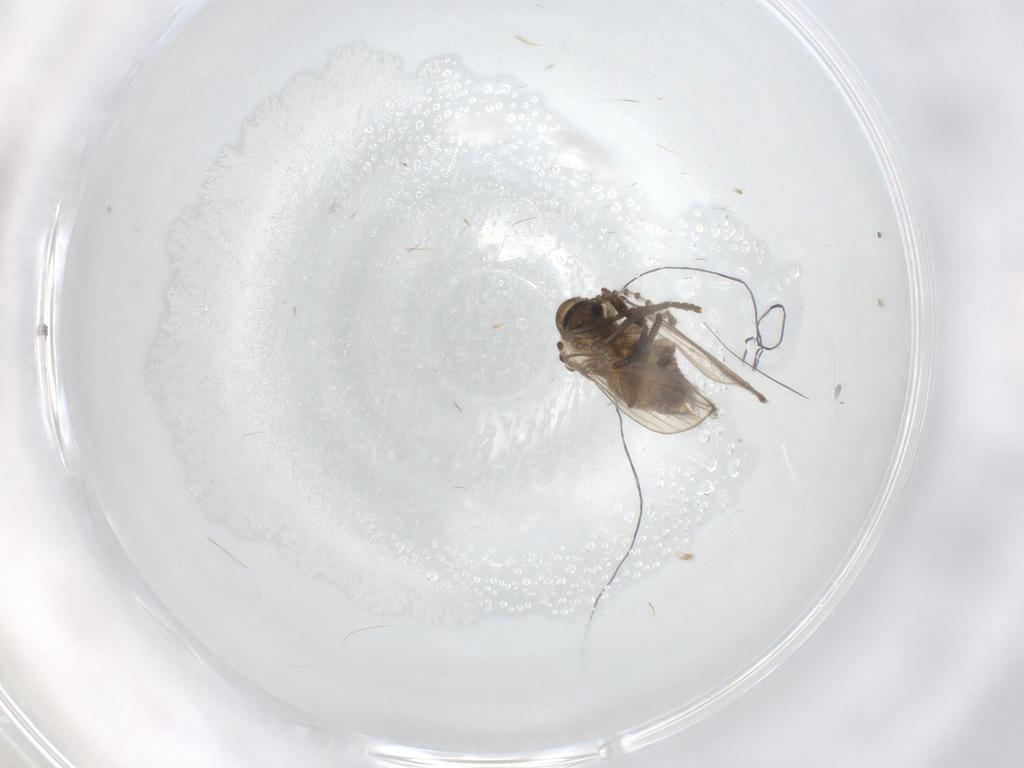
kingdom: Animalia
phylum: Arthropoda
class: Insecta
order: Diptera
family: Psychodidae
